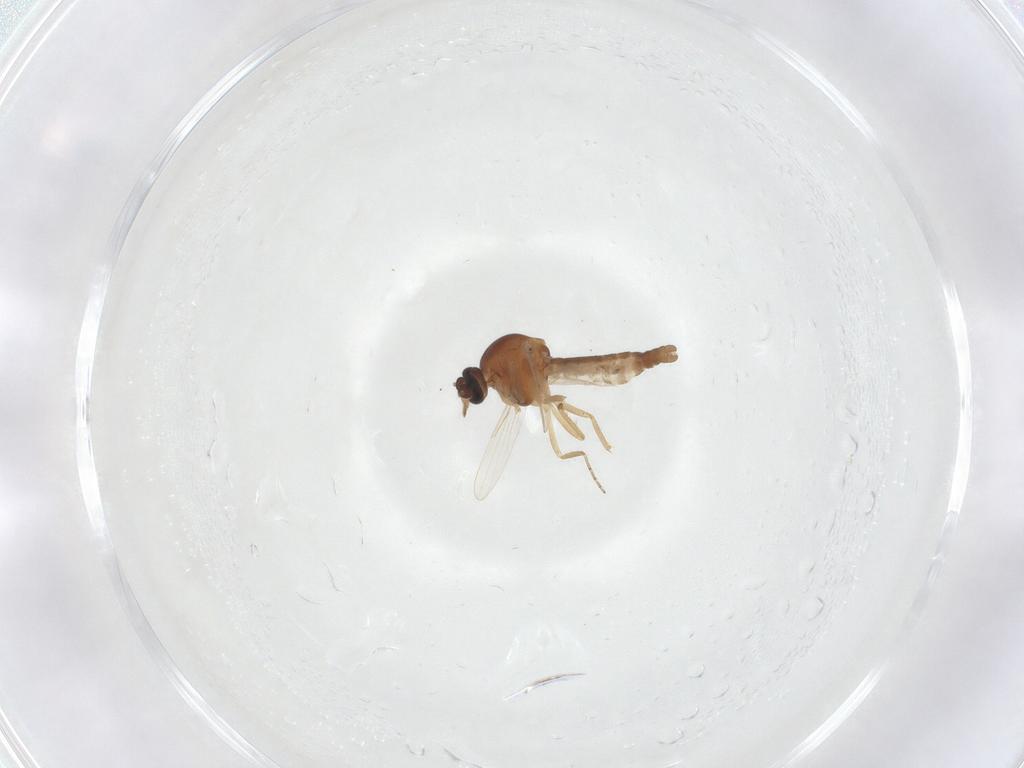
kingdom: Animalia
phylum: Arthropoda
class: Insecta
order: Diptera
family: Ceratopogonidae
